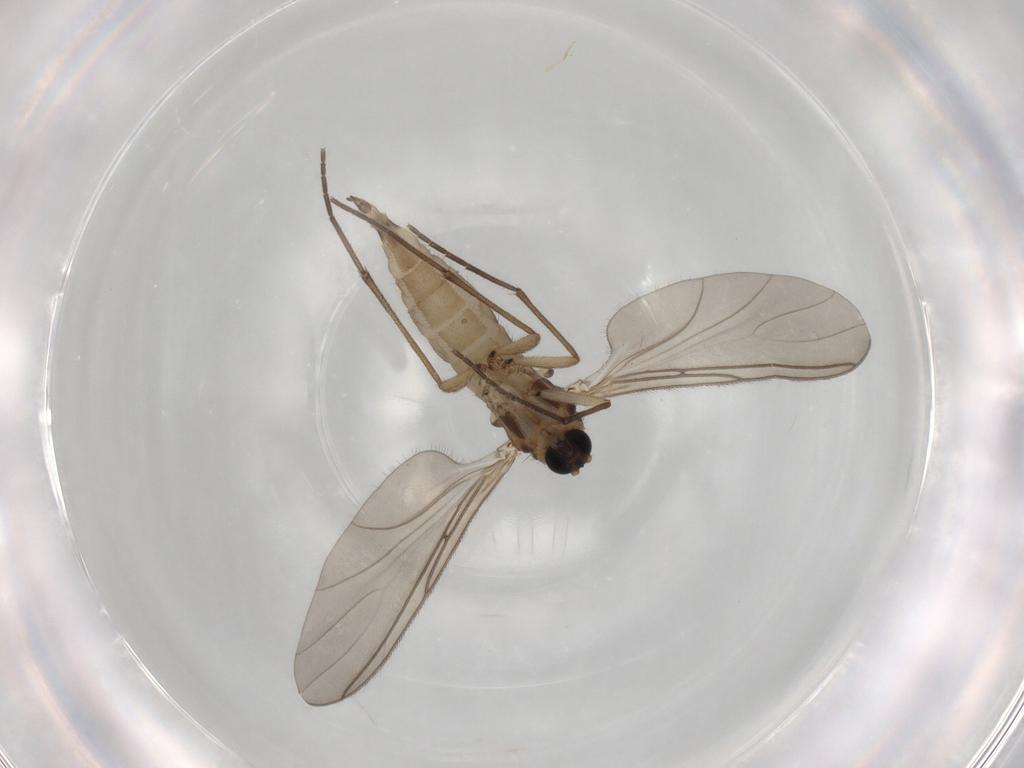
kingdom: Animalia
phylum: Arthropoda
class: Insecta
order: Diptera
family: Sciaridae
